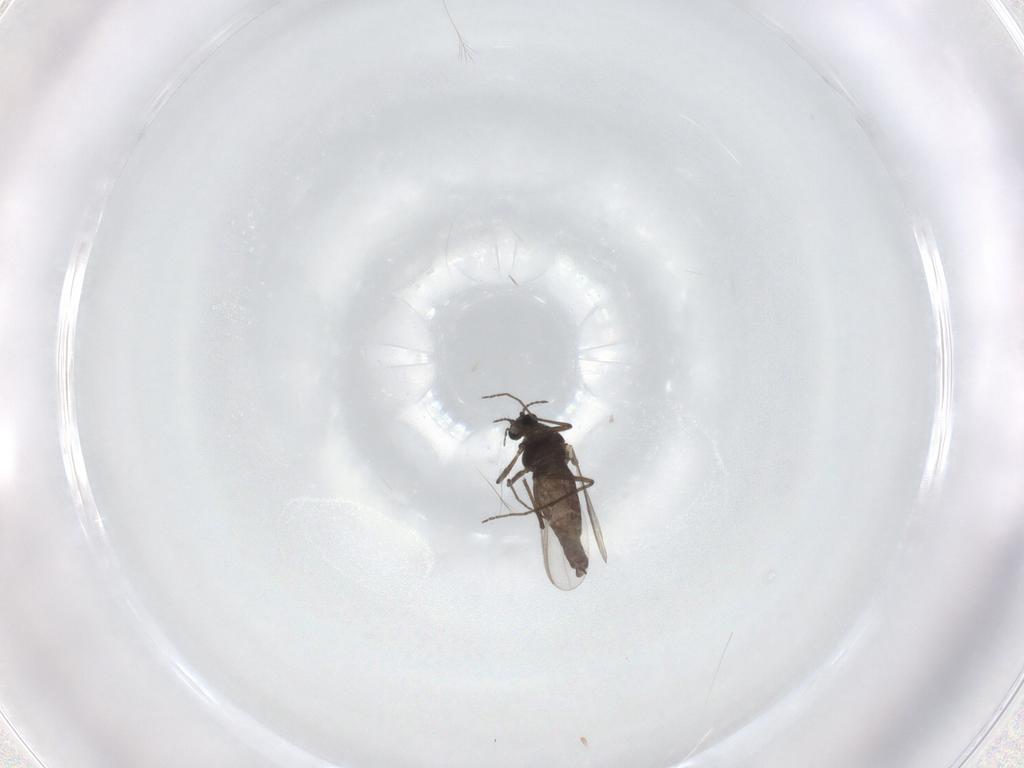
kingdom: Animalia
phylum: Arthropoda
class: Insecta
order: Diptera
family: Chironomidae
